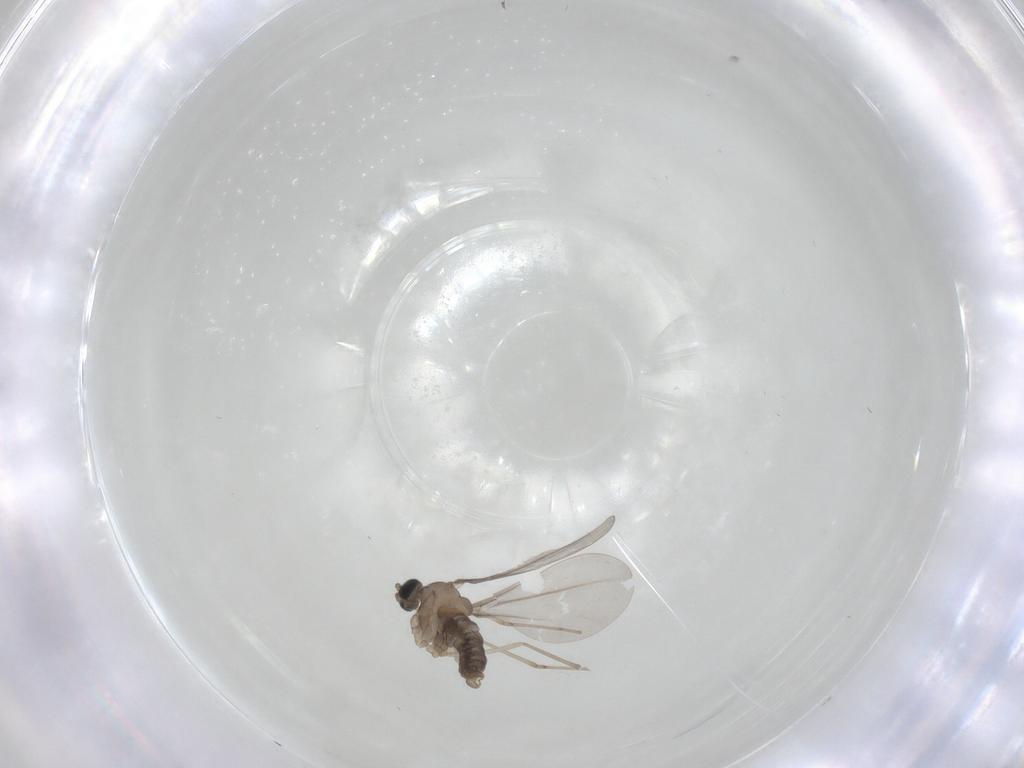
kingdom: Animalia
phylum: Arthropoda
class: Insecta
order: Diptera
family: Cecidomyiidae
